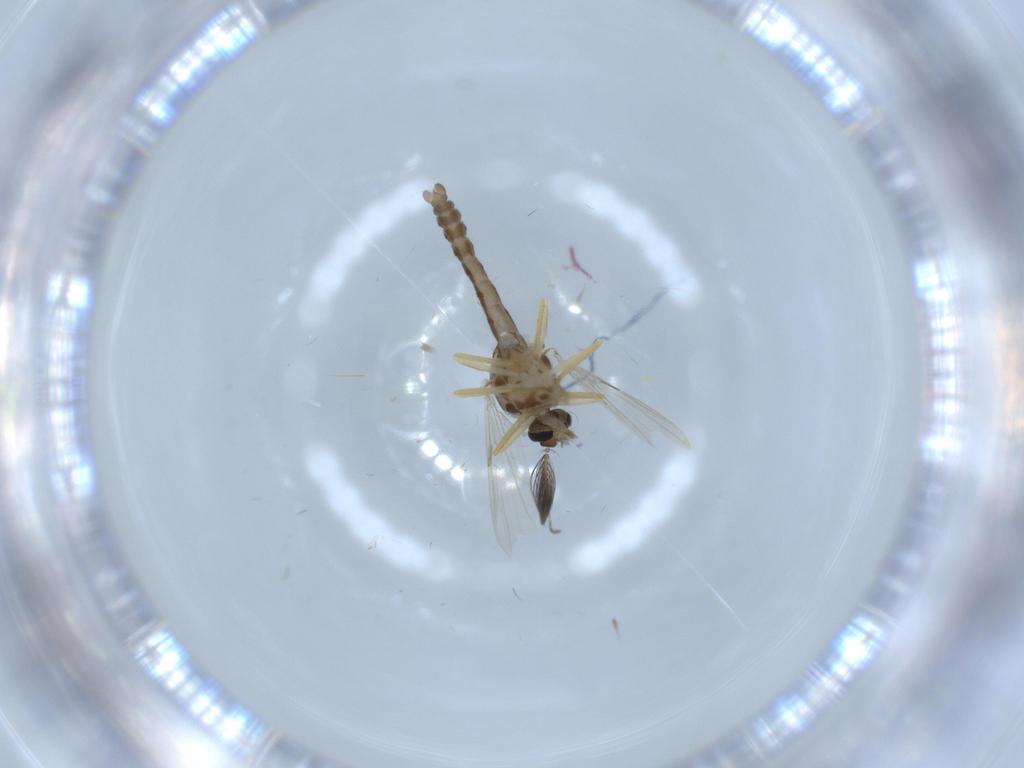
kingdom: Animalia
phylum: Arthropoda
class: Insecta
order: Diptera
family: Ceratopogonidae
